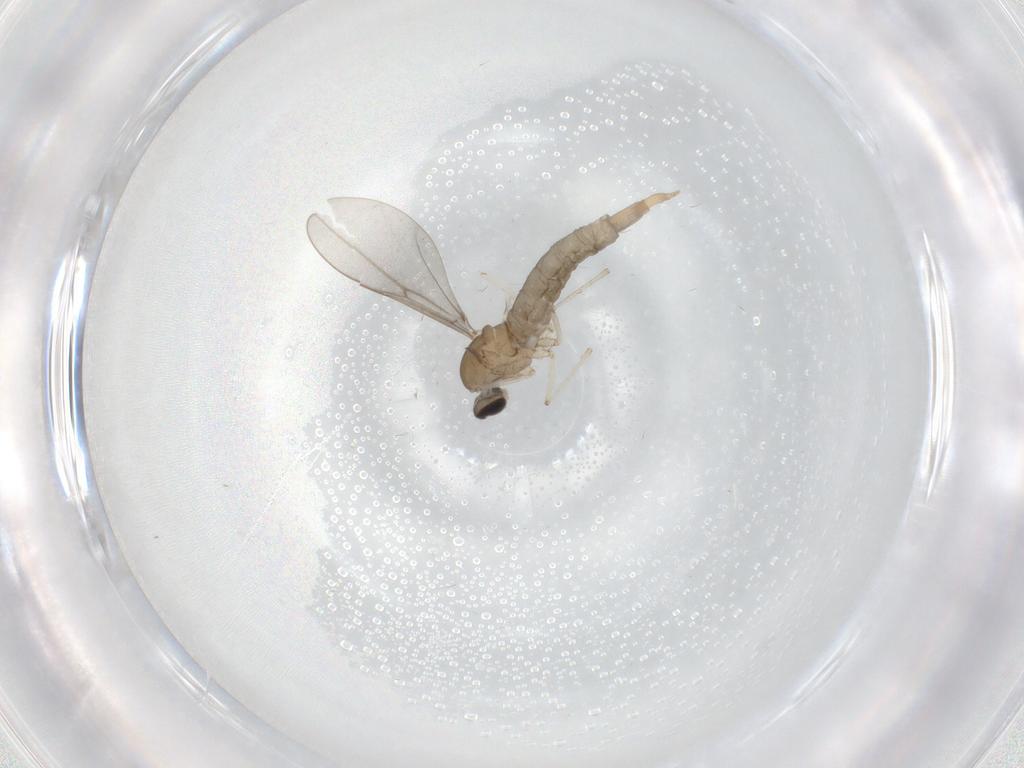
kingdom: Animalia
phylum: Arthropoda
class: Insecta
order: Diptera
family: Cecidomyiidae
